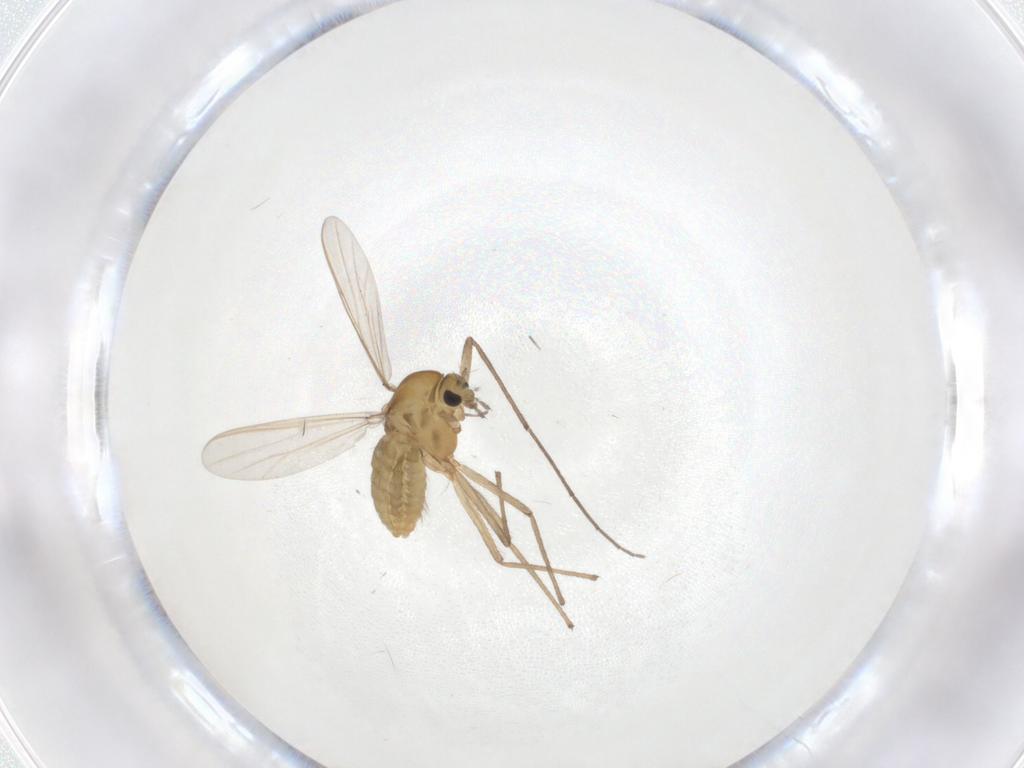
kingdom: Animalia
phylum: Arthropoda
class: Insecta
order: Diptera
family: Chironomidae
